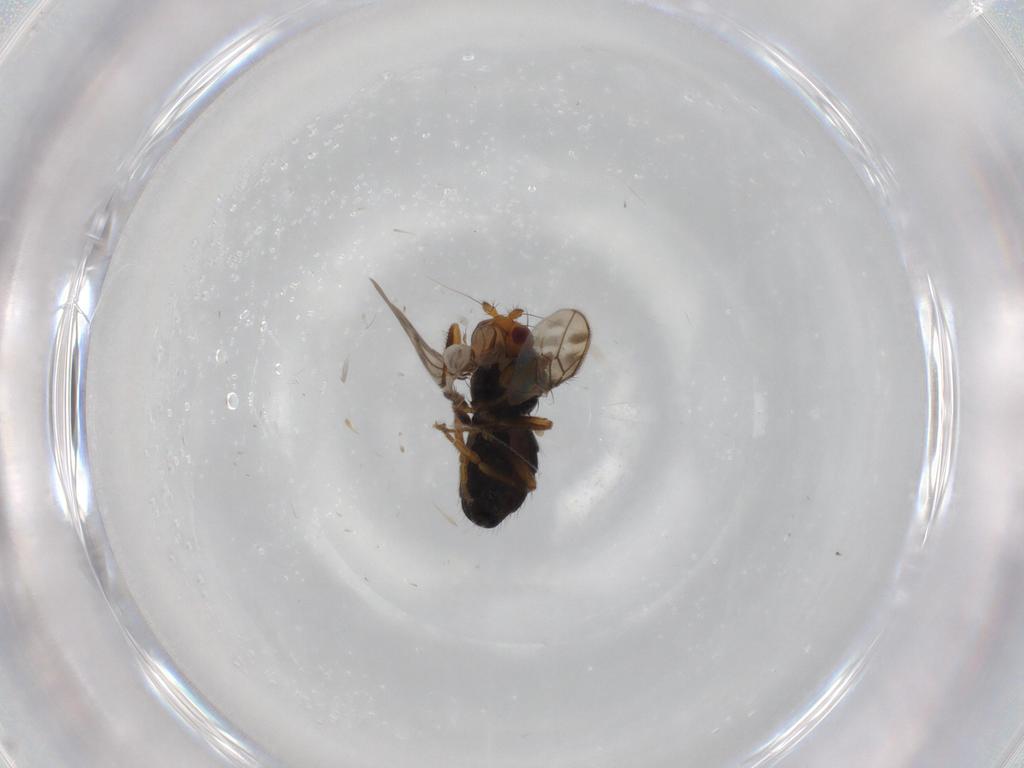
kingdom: Animalia
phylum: Arthropoda
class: Insecta
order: Diptera
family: Sphaeroceridae
